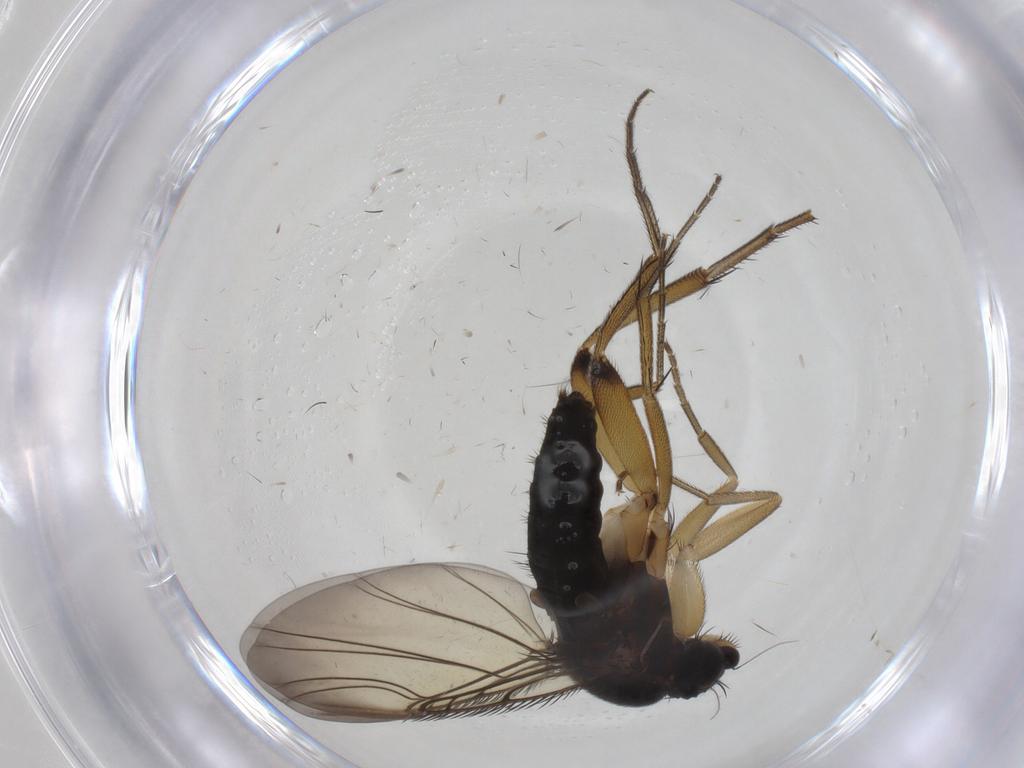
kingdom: Animalia
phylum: Arthropoda
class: Insecta
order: Diptera
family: Phoridae
